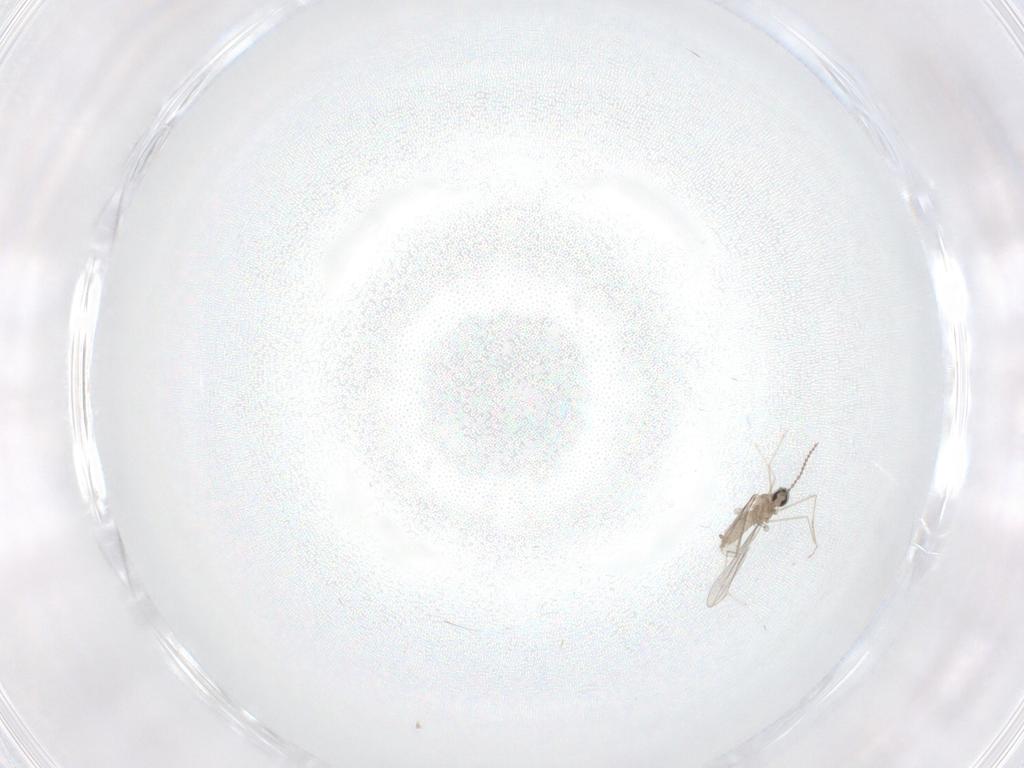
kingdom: Animalia
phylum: Arthropoda
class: Insecta
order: Diptera
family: Cecidomyiidae
